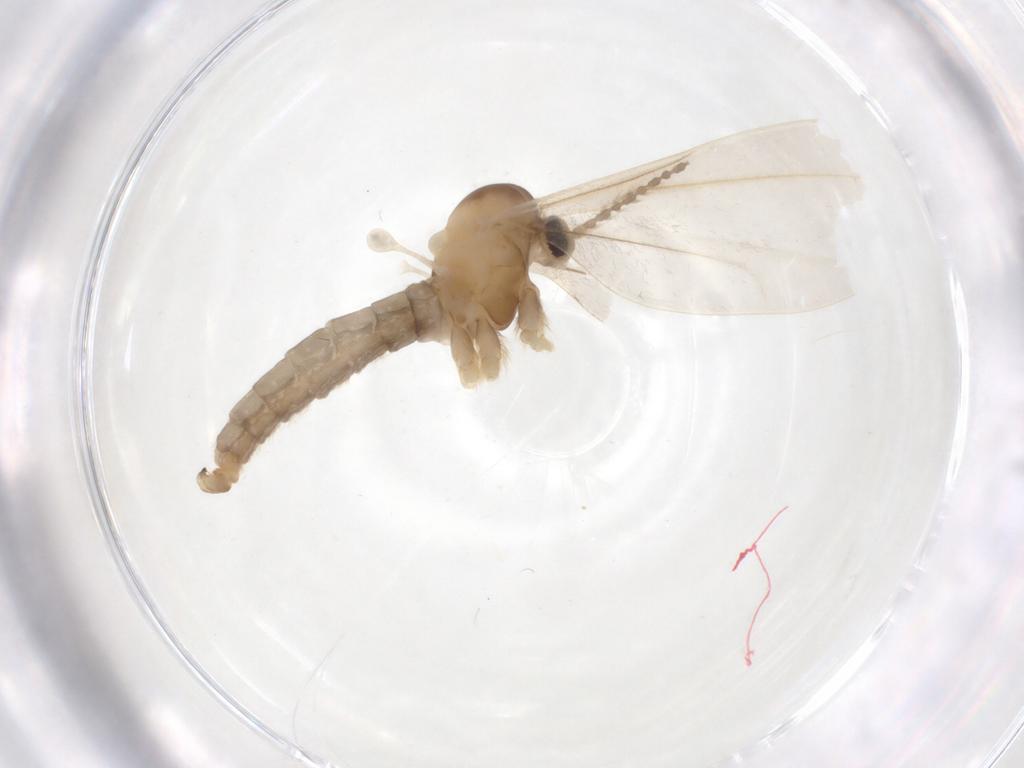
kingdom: Animalia
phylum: Arthropoda
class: Insecta
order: Diptera
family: Cecidomyiidae
